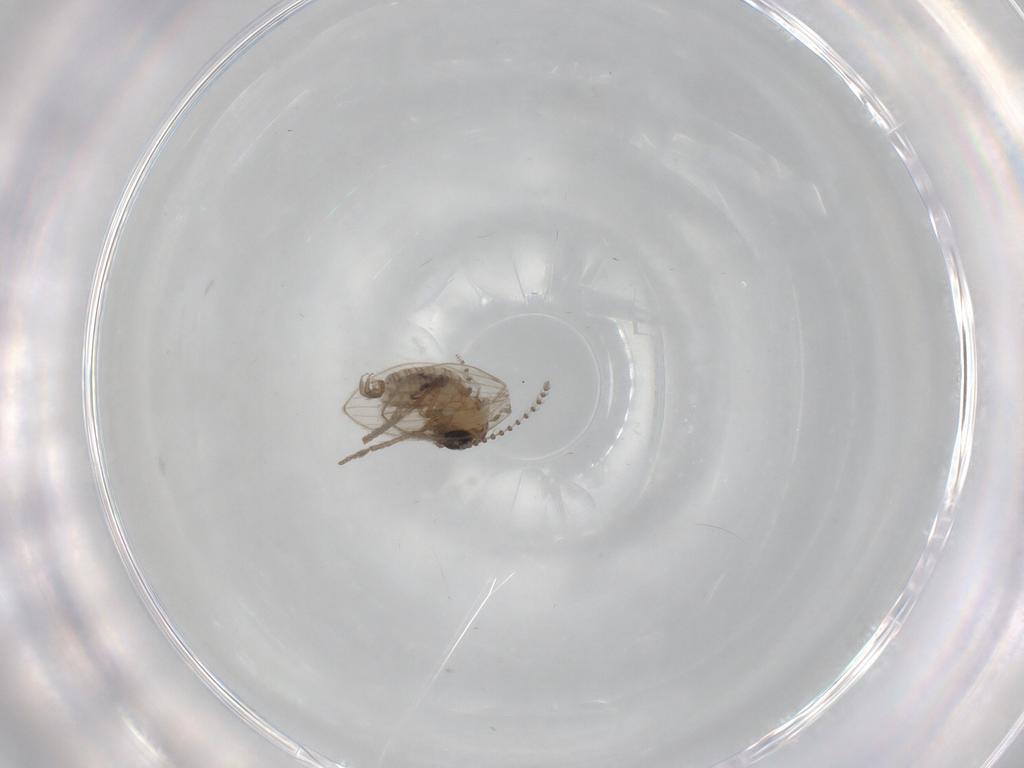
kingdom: Animalia
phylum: Arthropoda
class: Insecta
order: Diptera
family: Psychodidae
